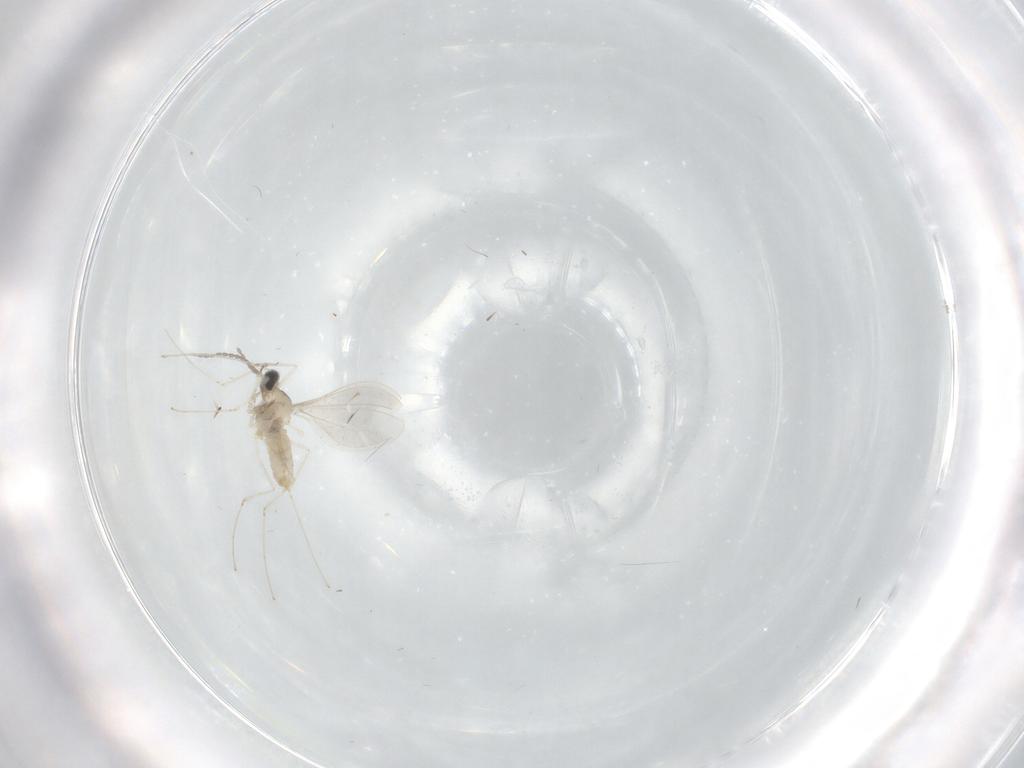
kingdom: Animalia
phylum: Arthropoda
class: Insecta
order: Diptera
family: Cecidomyiidae
